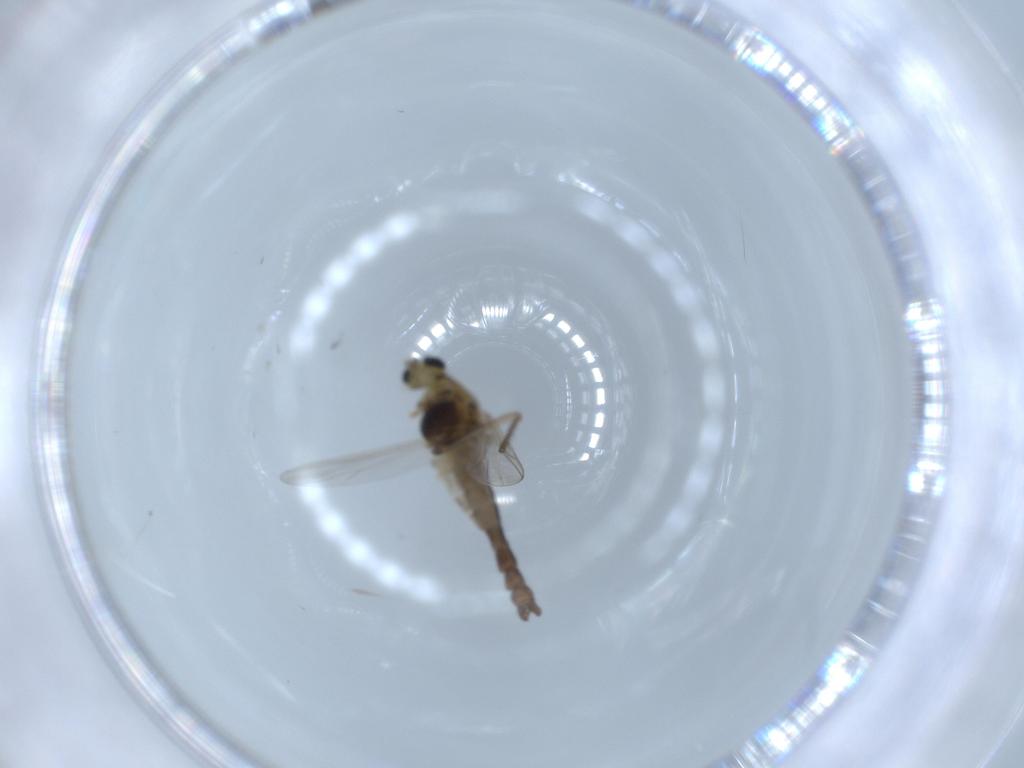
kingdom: Animalia
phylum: Arthropoda
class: Insecta
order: Diptera
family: Chironomidae
